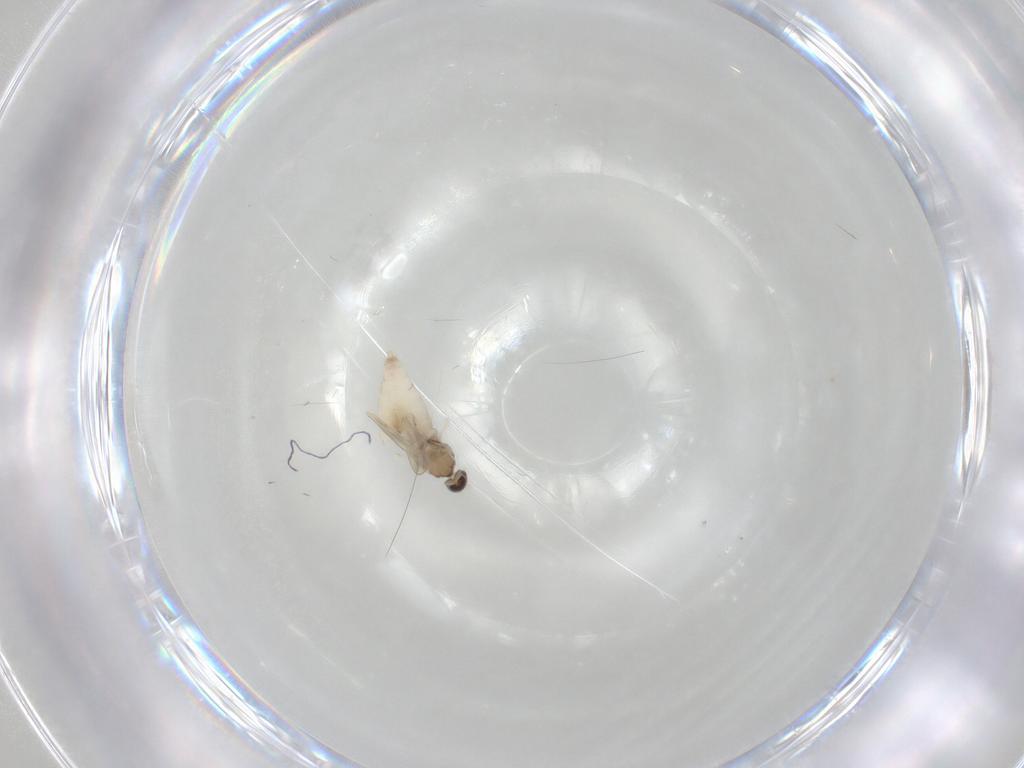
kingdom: Animalia
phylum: Arthropoda
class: Insecta
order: Diptera
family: Cecidomyiidae
